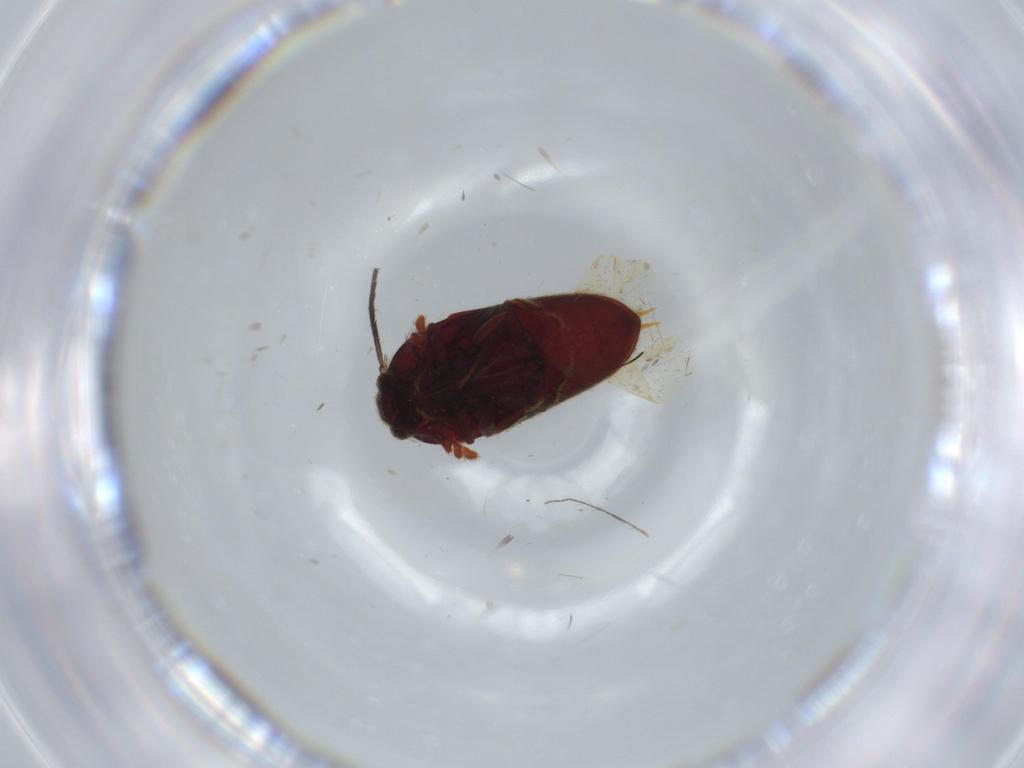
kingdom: Animalia
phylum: Arthropoda
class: Insecta
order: Coleoptera
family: Throscidae
